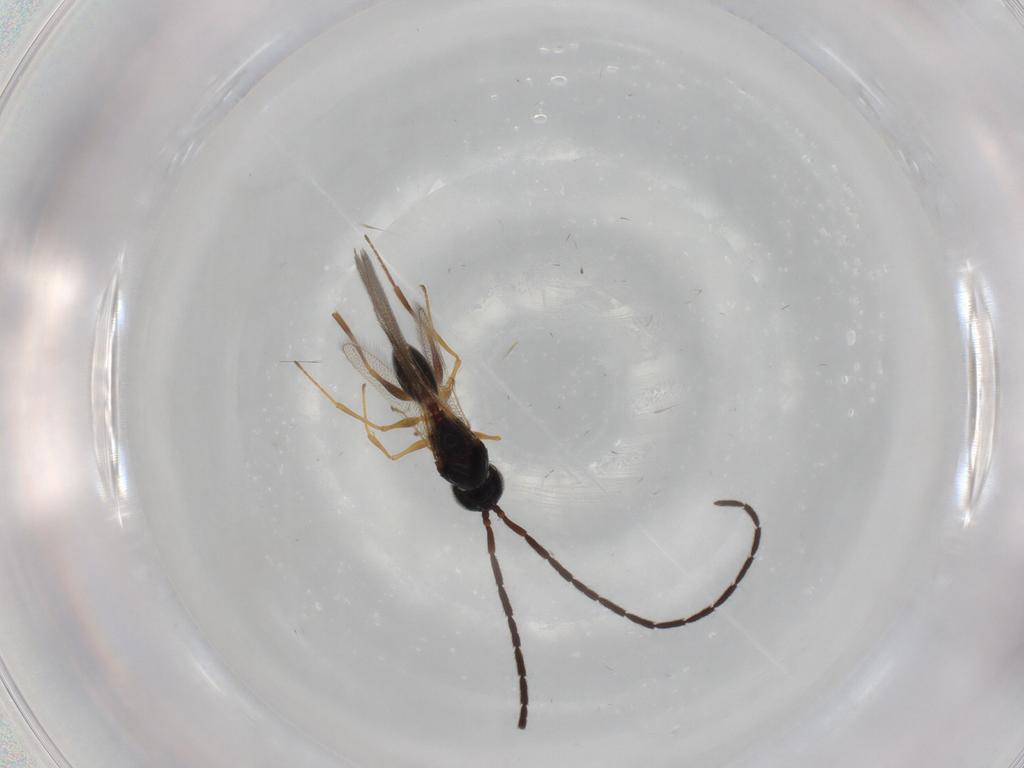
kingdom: Animalia
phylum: Arthropoda
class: Insecta
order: Hymenoptera
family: Figitidae
